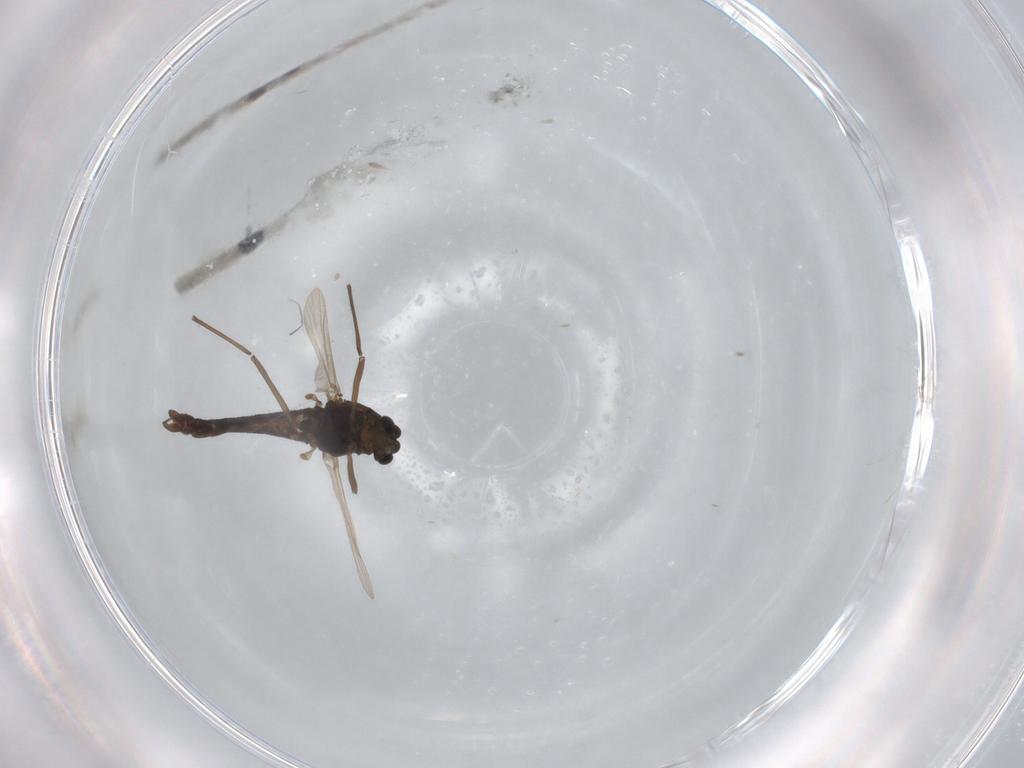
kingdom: Animalia
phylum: Arthropoda
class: Insecta
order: Diptera
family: Chironomidae
